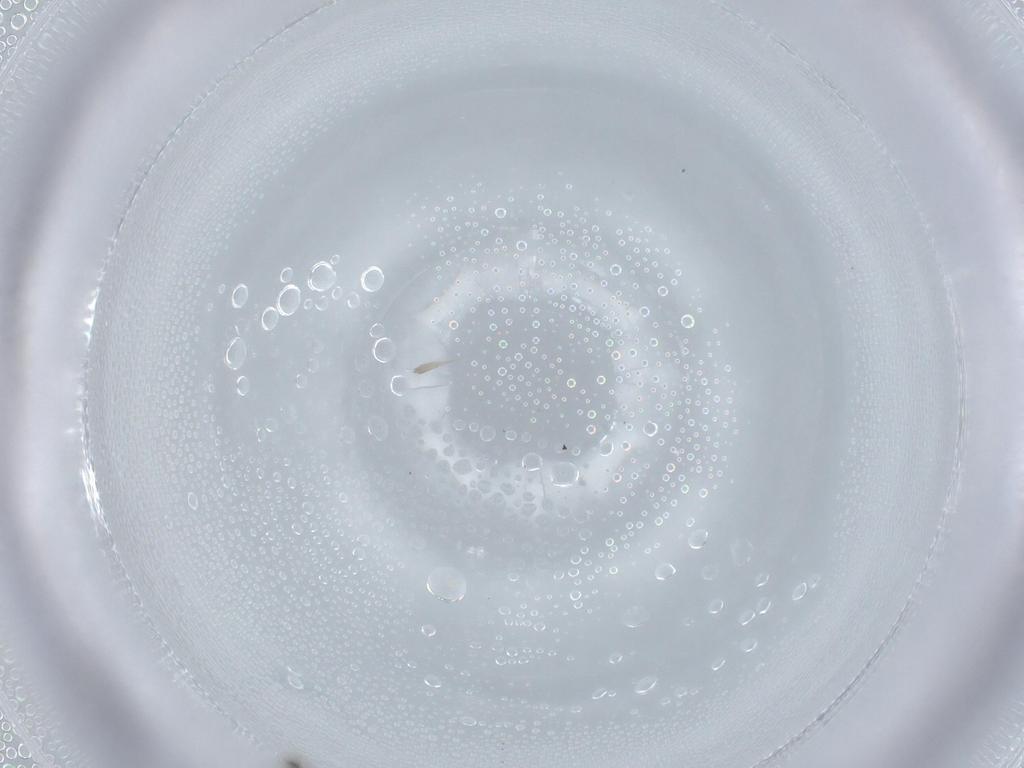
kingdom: Animalia
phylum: Arthropoda
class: Insecta
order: Hymenoptera
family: Mymaridae
